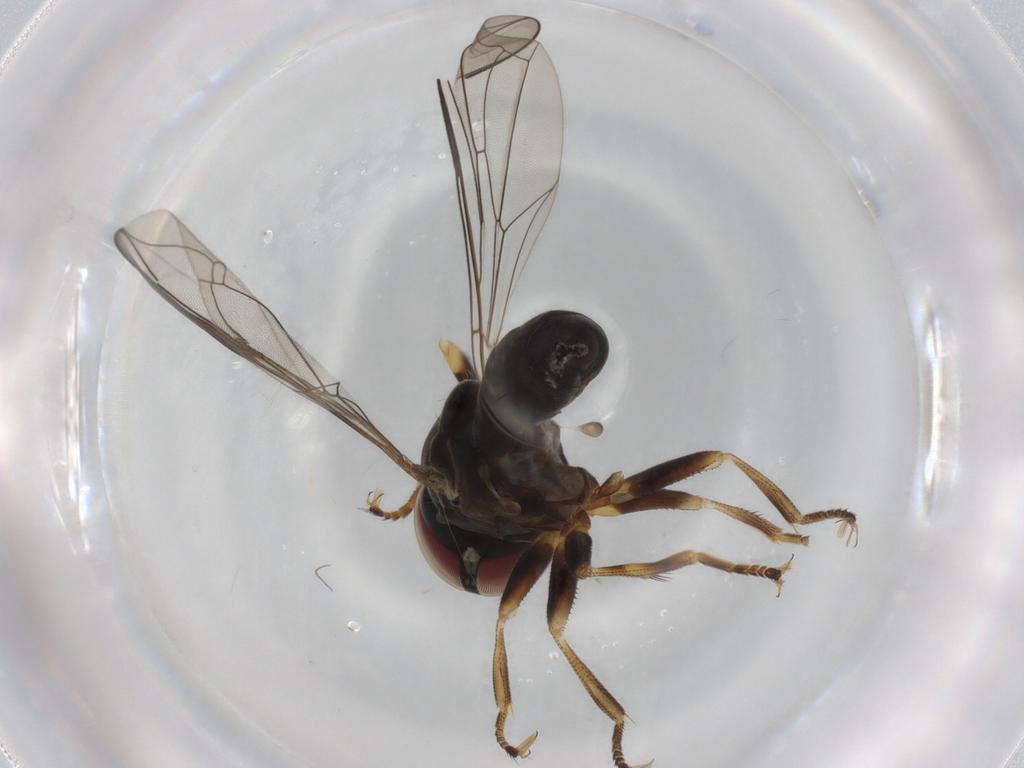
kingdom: Animalia
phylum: Arthropoda
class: Insecta
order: Diptera
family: Pipunculidae
